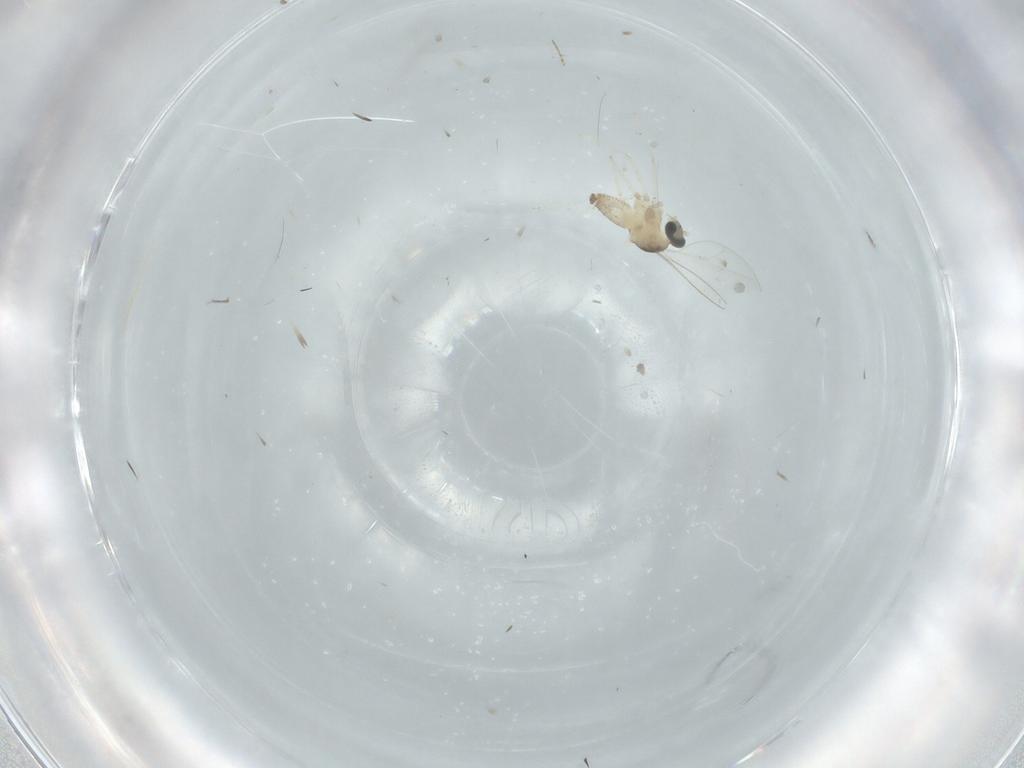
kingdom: Animalia
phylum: Arthropoda
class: Insecta
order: Diptera
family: Cecidomyiidae
